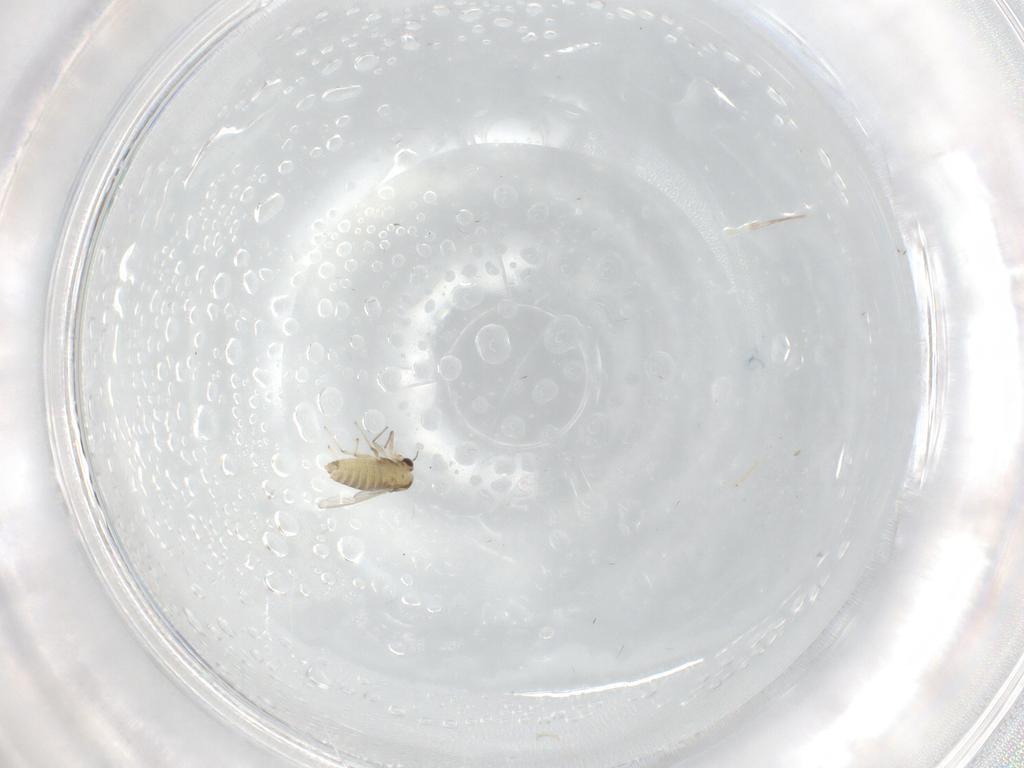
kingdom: Animalia
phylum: Arthropoda
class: Insecta
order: Diptera
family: Chironomidae
